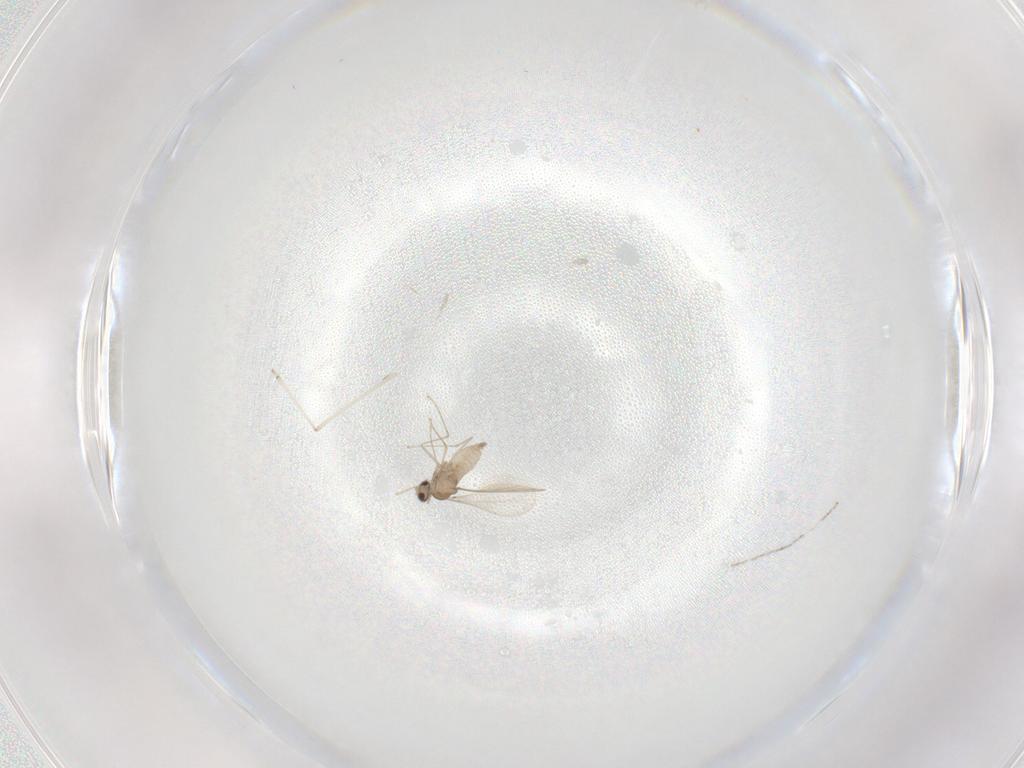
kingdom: Animalia
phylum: Arthropoda
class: Insecta
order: Diptera
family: Cecidomyiidae
